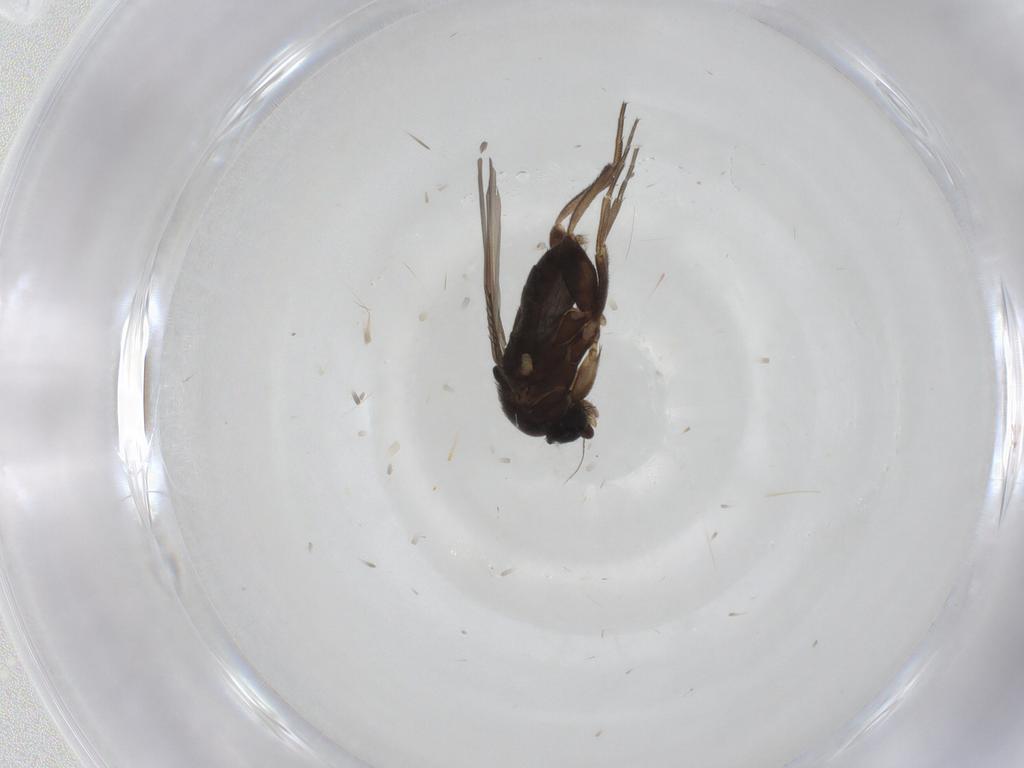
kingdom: Animalia
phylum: Arthropoda
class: Insecta
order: Diptera
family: Phoridae
